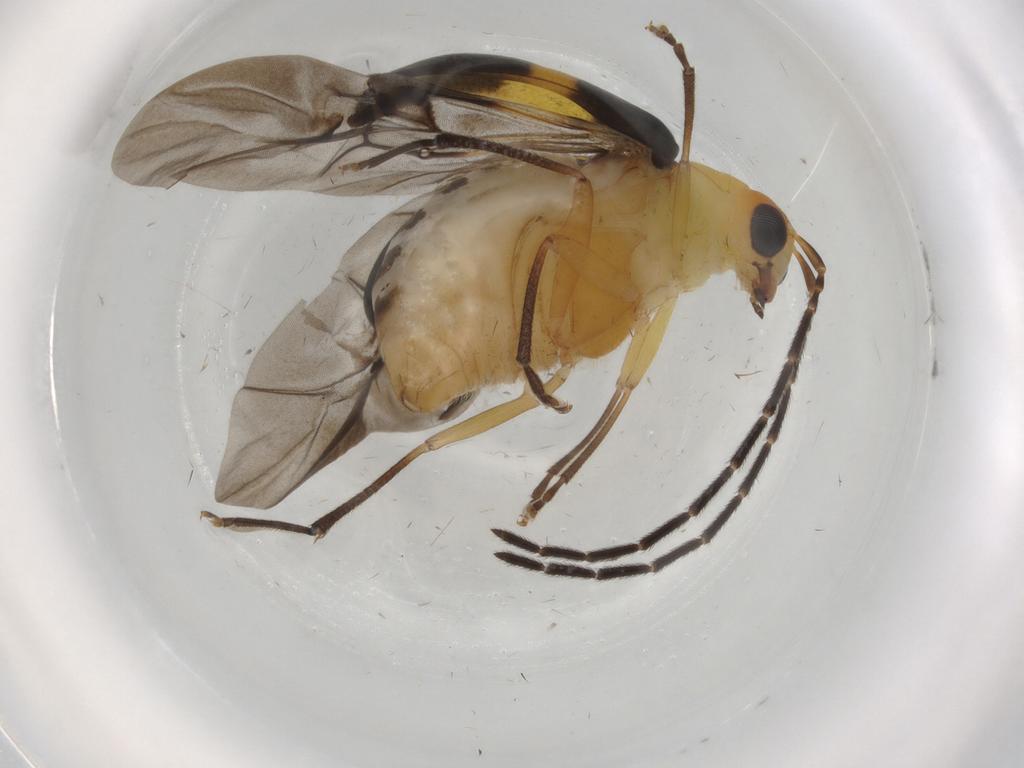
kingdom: Animalia
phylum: Arthropoda
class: Insecta
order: Coleoptera
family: Chrysomelidae
